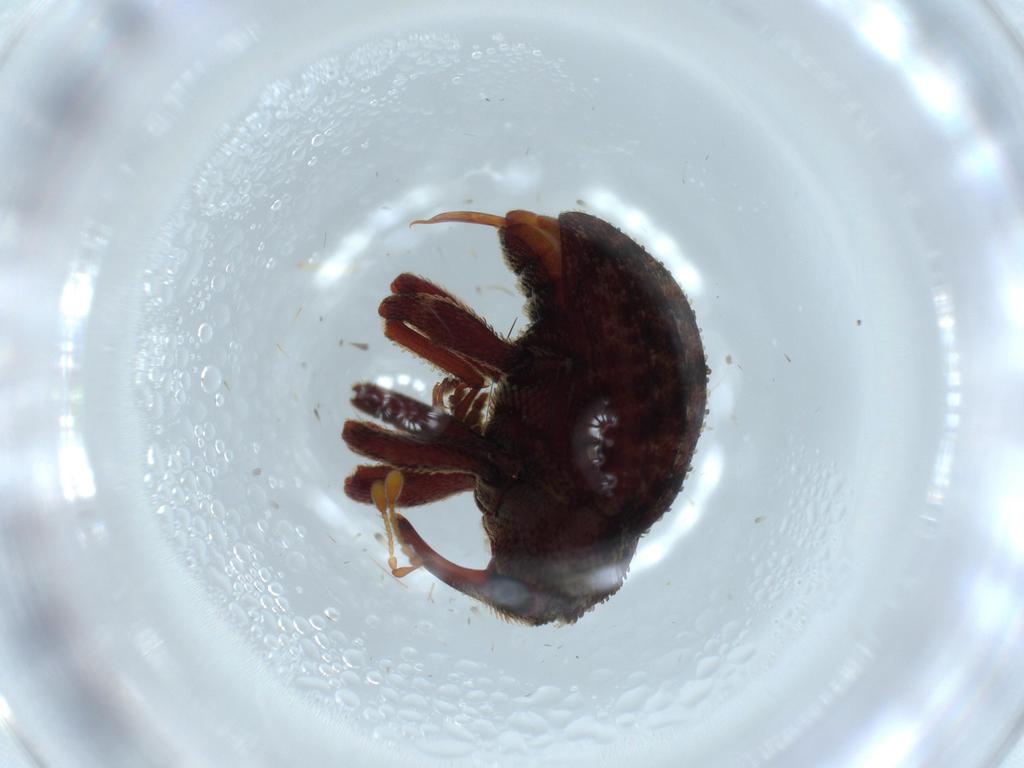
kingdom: Animalia
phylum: Arthropoda
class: Insecta
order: Coleoptera
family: Curculionidae
